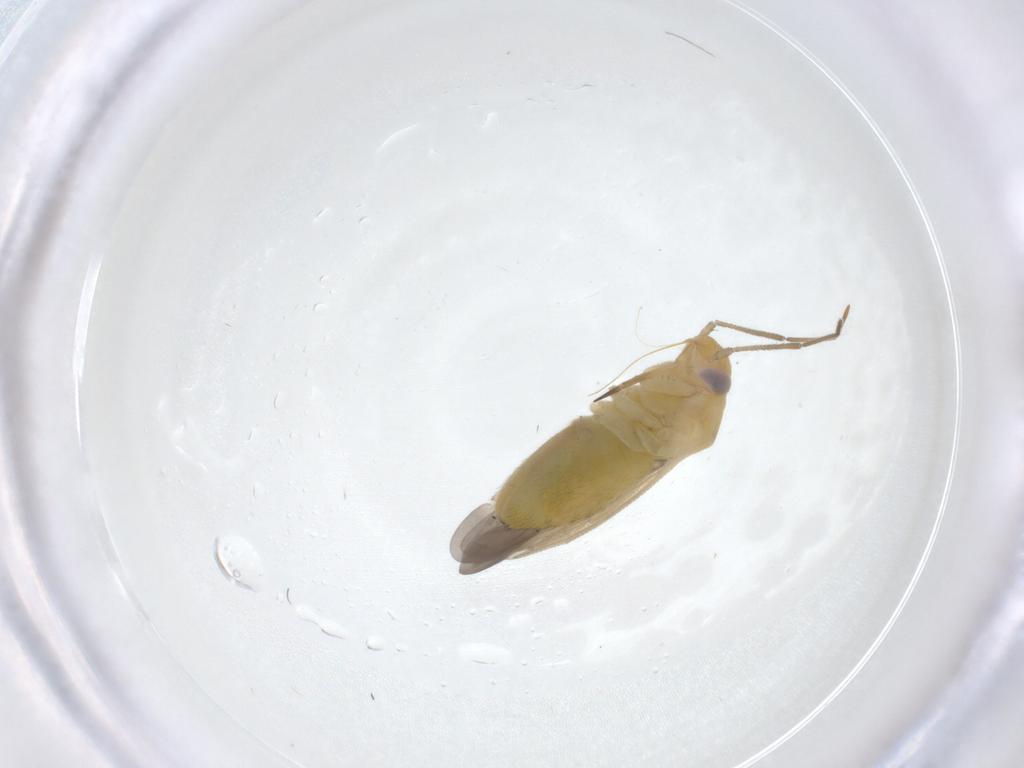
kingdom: Animalia
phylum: Arthropoda
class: Insecta
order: Hemiptera
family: Miridae
